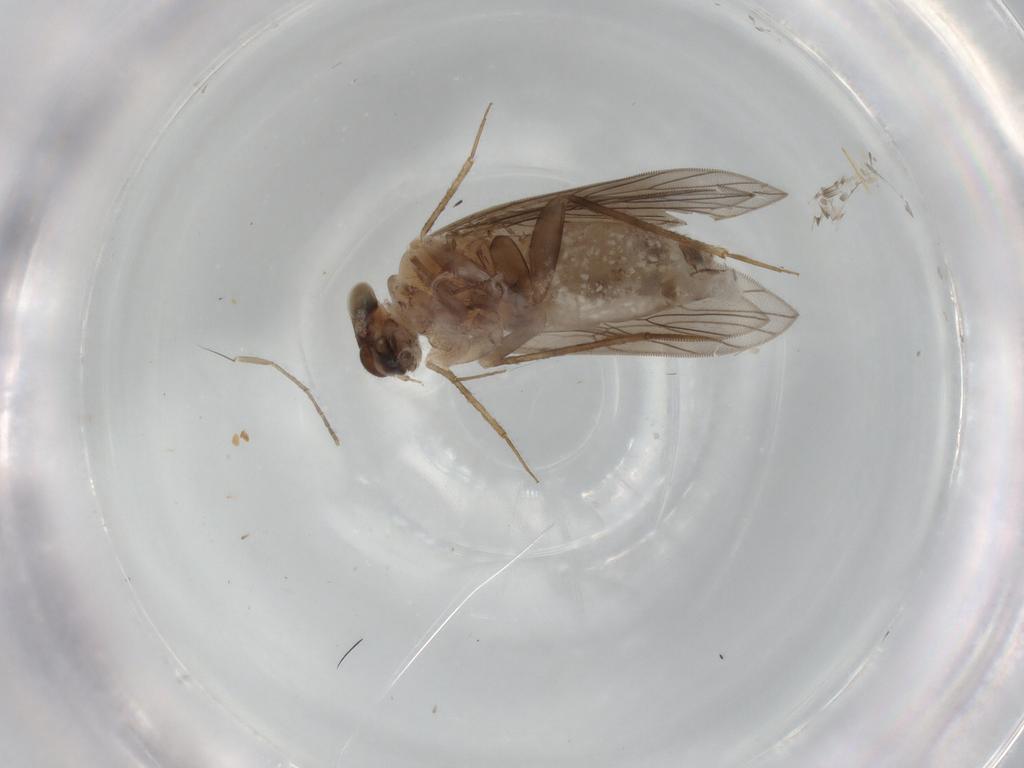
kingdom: Animalia
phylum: Arthropoda
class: Insecta
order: Psocodea
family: Lepidopsocidae
